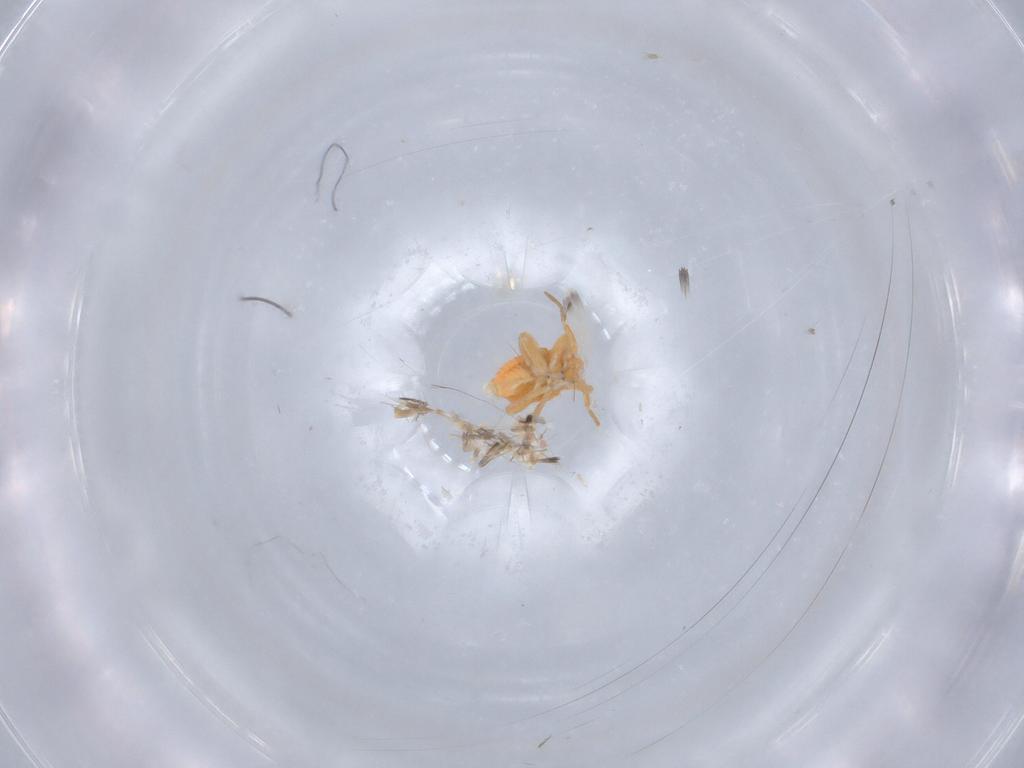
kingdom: Animalia
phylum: Arthropoda
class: Insecta
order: Hemiptera
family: Miridae
